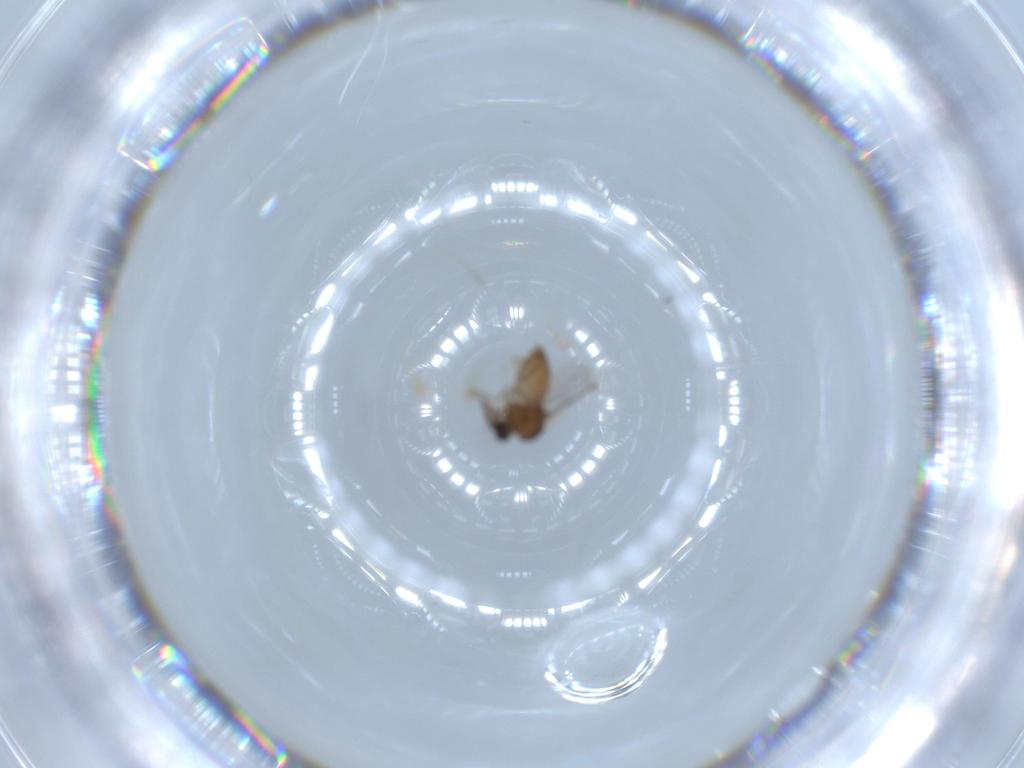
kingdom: Animalia
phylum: Arthropoda
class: Insecta
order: Diptera
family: Ceratopogonidae
